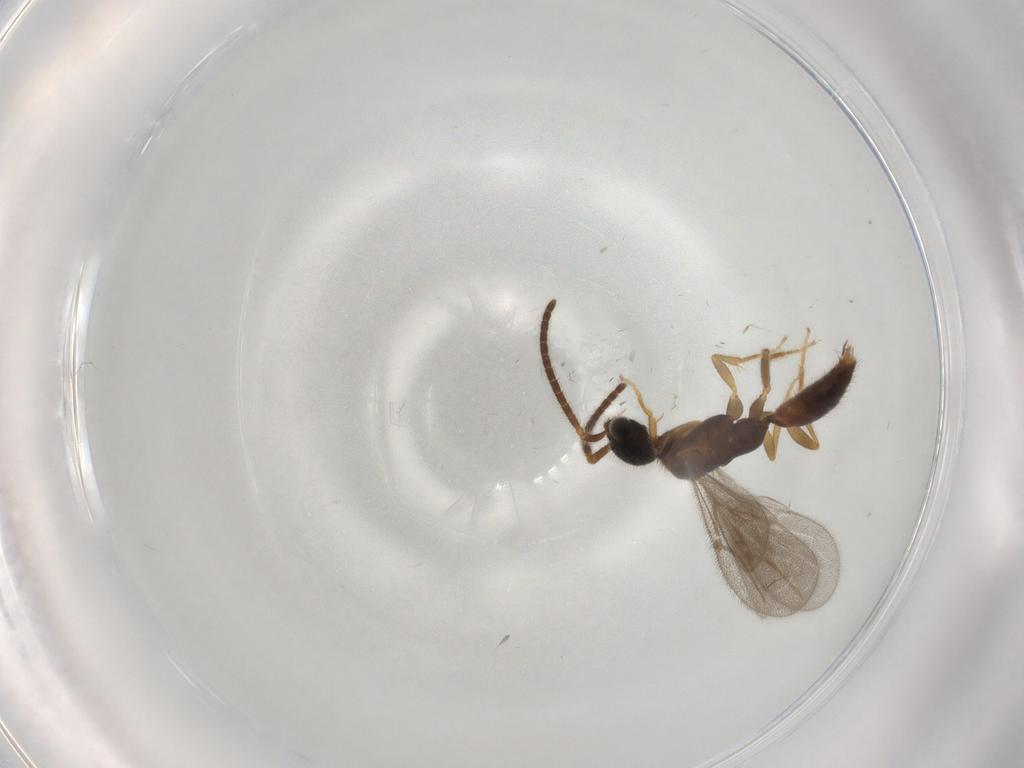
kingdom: Animalia
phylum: Arthropoda
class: Insecta
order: Hymenoptera
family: Bethylidae
